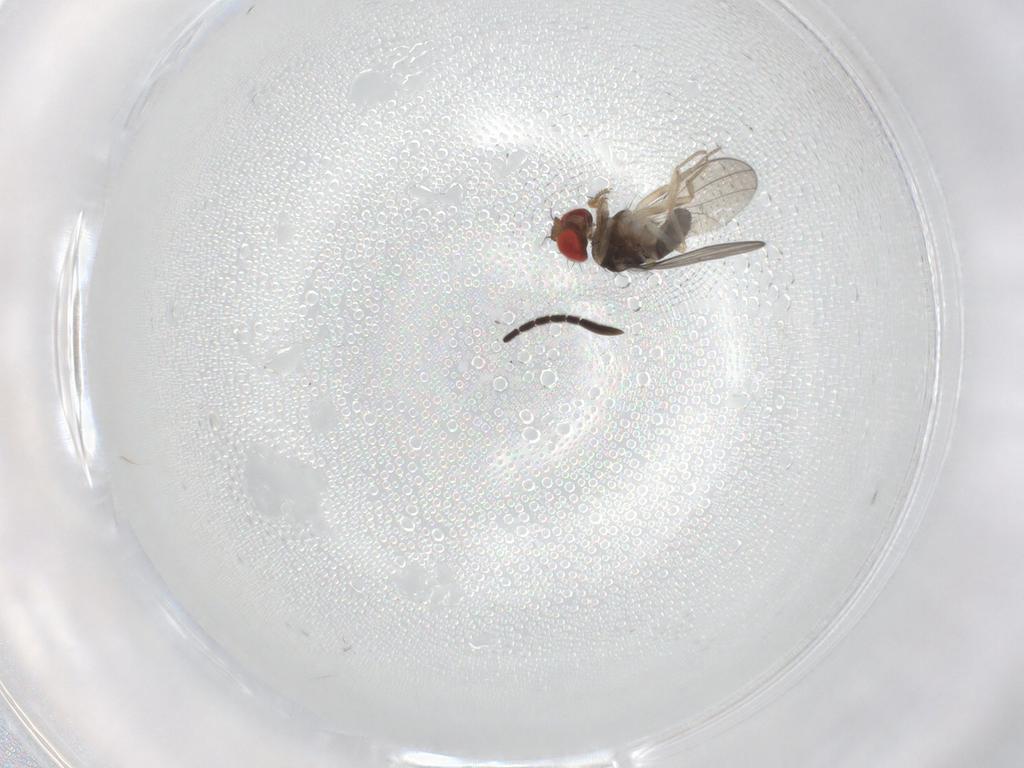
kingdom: Animalia
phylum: Arthropoda
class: Insecta
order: Diptera
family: Drosophilidae
